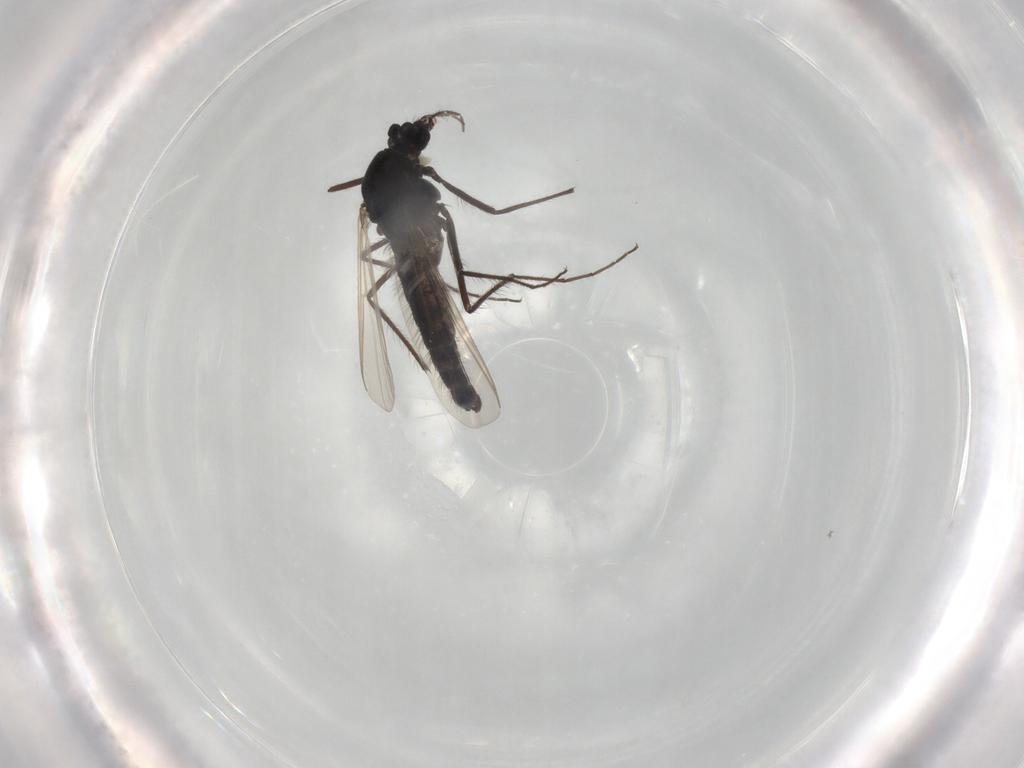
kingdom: Animalia
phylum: Arthropoda
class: Insecta
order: Diptera
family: Chironomidae
